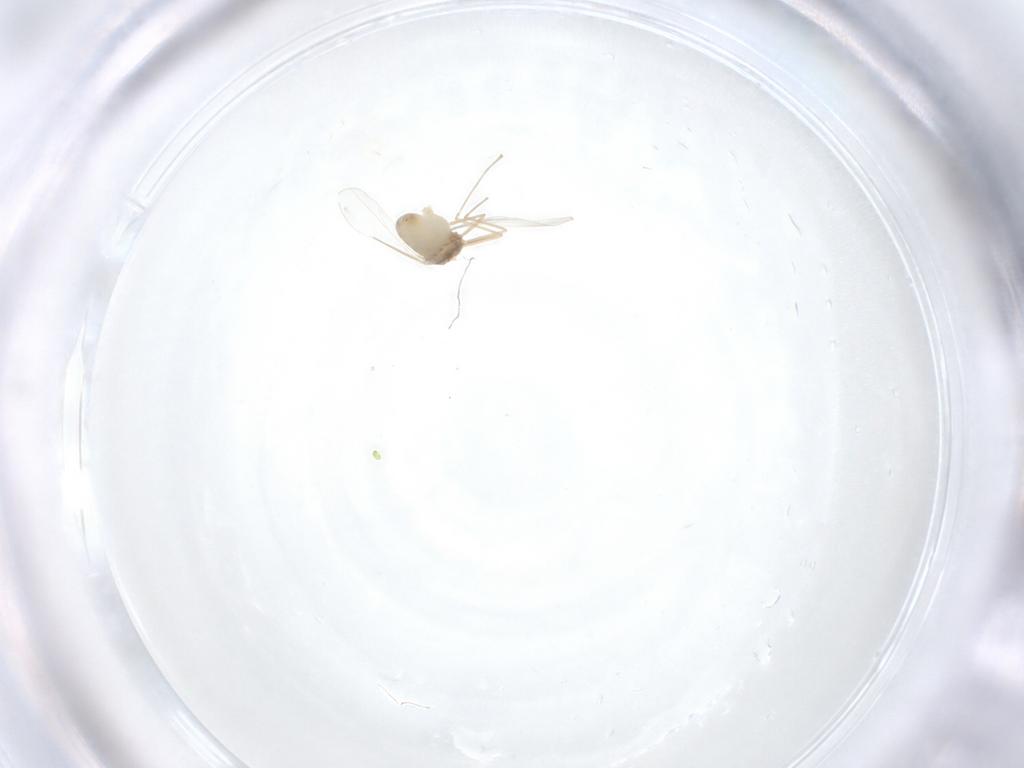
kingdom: Animalia
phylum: Arthropoda
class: Insecta
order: Diptera
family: Cecidomyiidae
